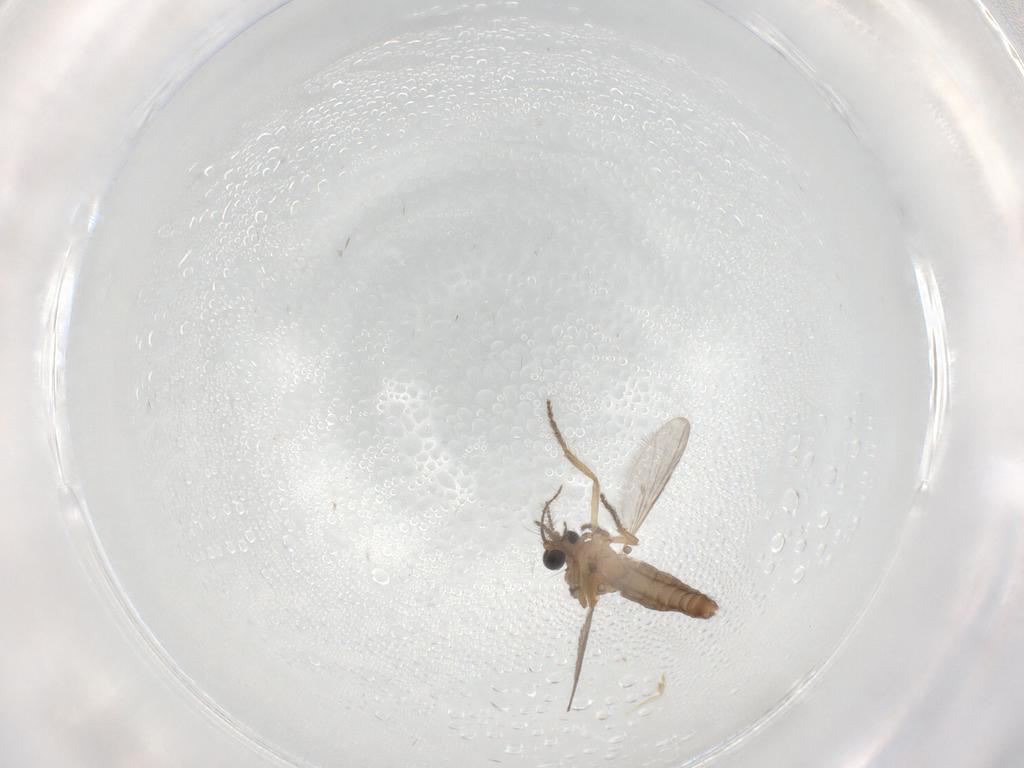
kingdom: Animalia
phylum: Arthropoda
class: Insecta
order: Diptera
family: Ceratopogonidae
